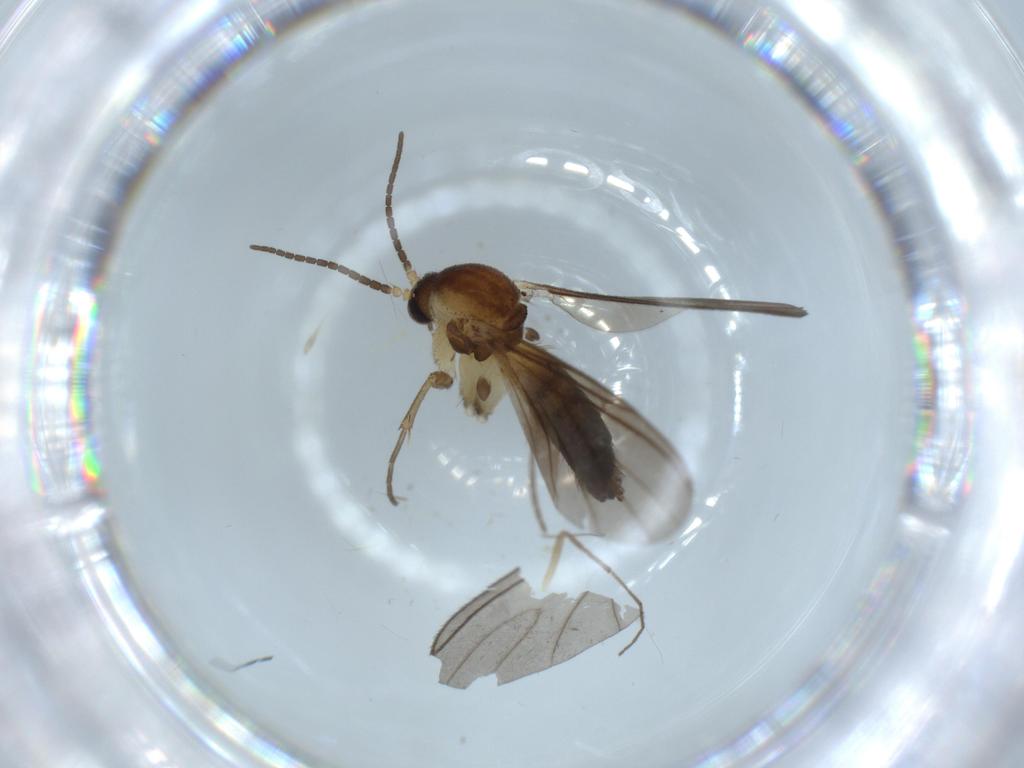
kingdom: Animalia
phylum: Arthropoda
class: Insecta
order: Diptera
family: Mycetophilidae
